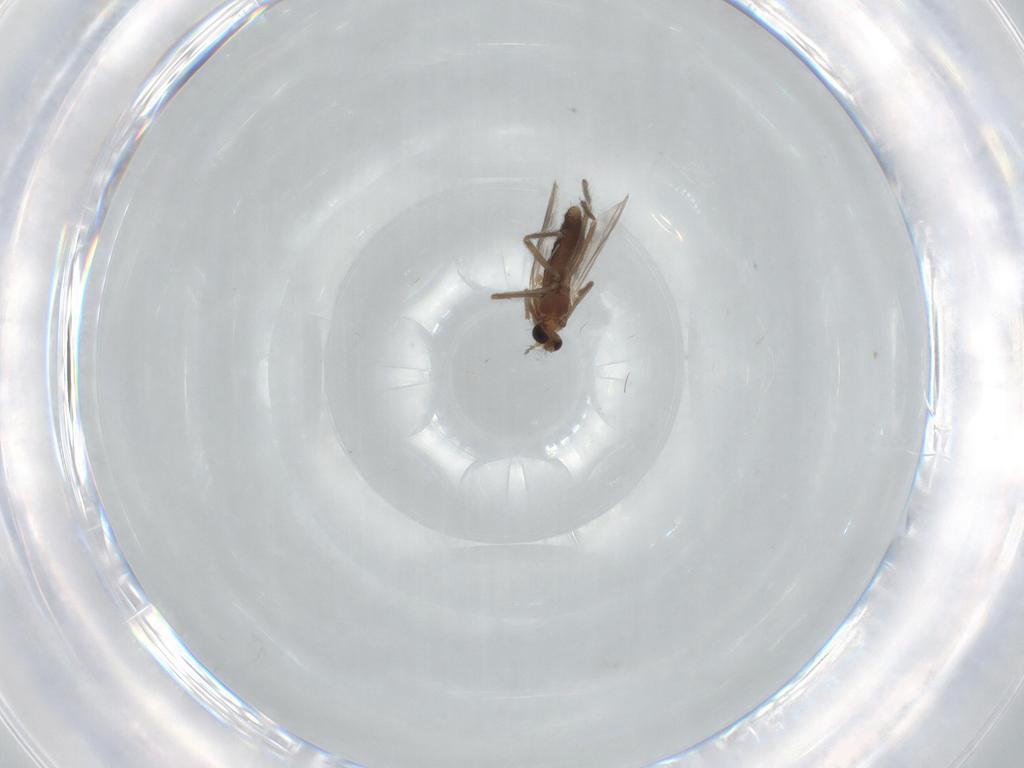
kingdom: Animalia
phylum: Arthropoda
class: Insecta
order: Diptera
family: Chironomidae
